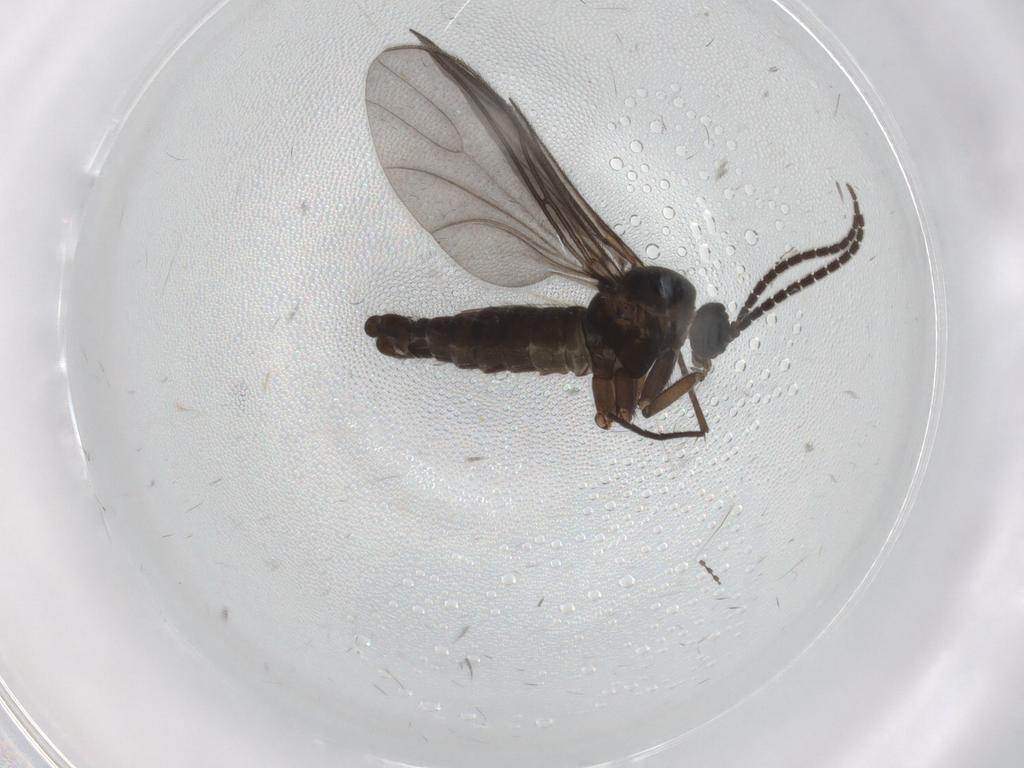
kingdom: Animalia
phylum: Arthropoda
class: Insecta
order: Diptera
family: Sciaridae
